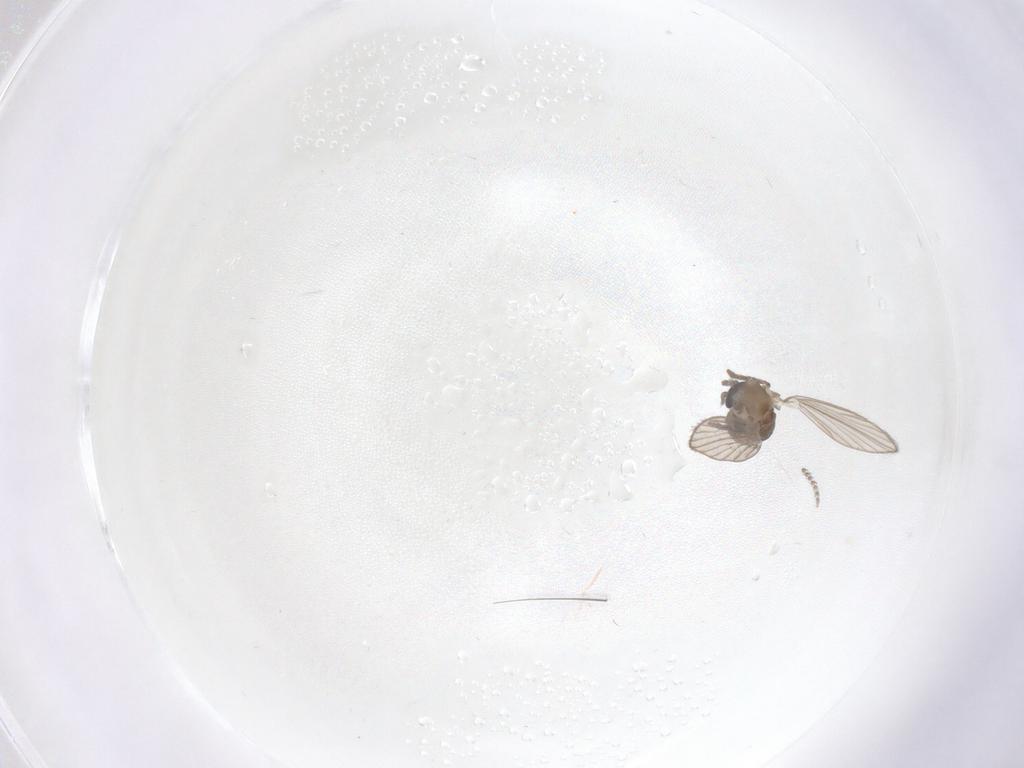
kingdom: Animalia
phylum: Arthropoda
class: Insecta
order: Diptera
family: Psychodidae
